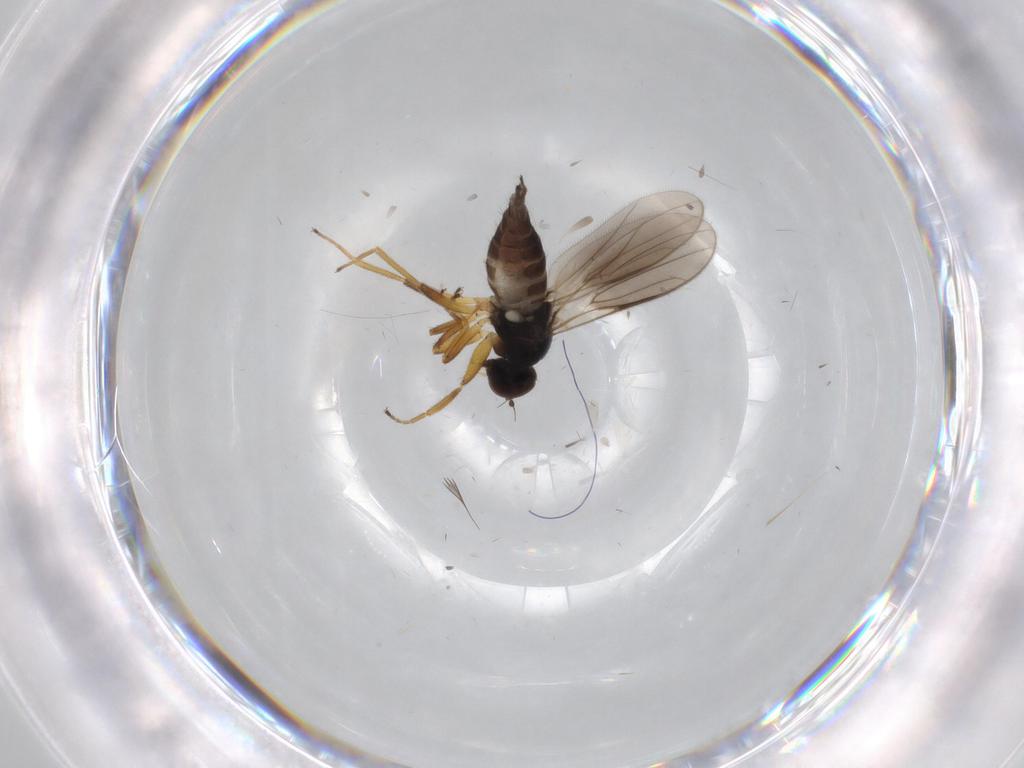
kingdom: Animalia
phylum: Arthropoda
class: Insecta
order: Diptera
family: Hybotidae
